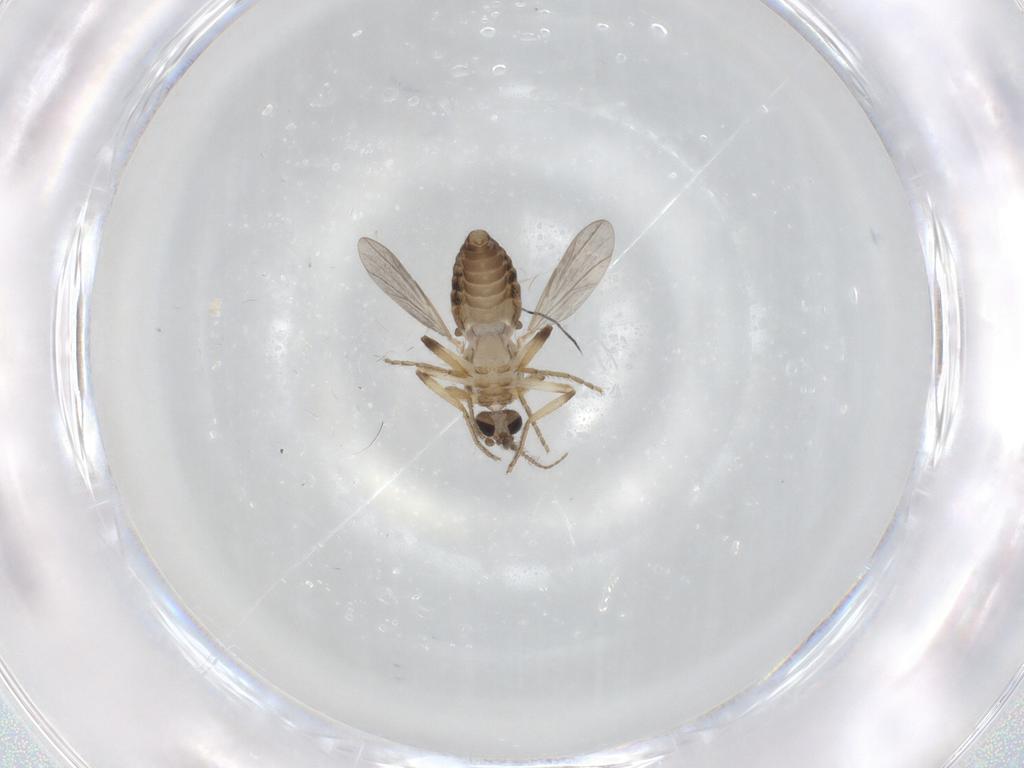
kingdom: Animalia
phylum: Arthropoda
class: Insecta
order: Diptera
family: Ceratopogonidae
